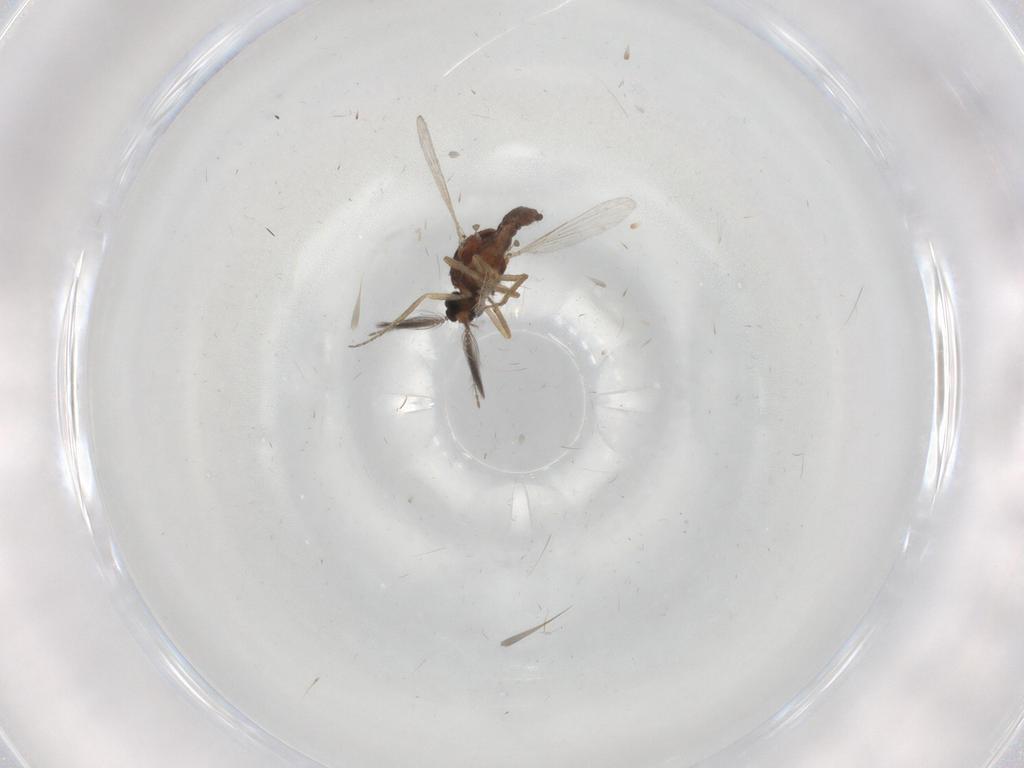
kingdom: Animalia
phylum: Arthropoda
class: Insecta
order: Diptera
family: Ceratopogonidae
